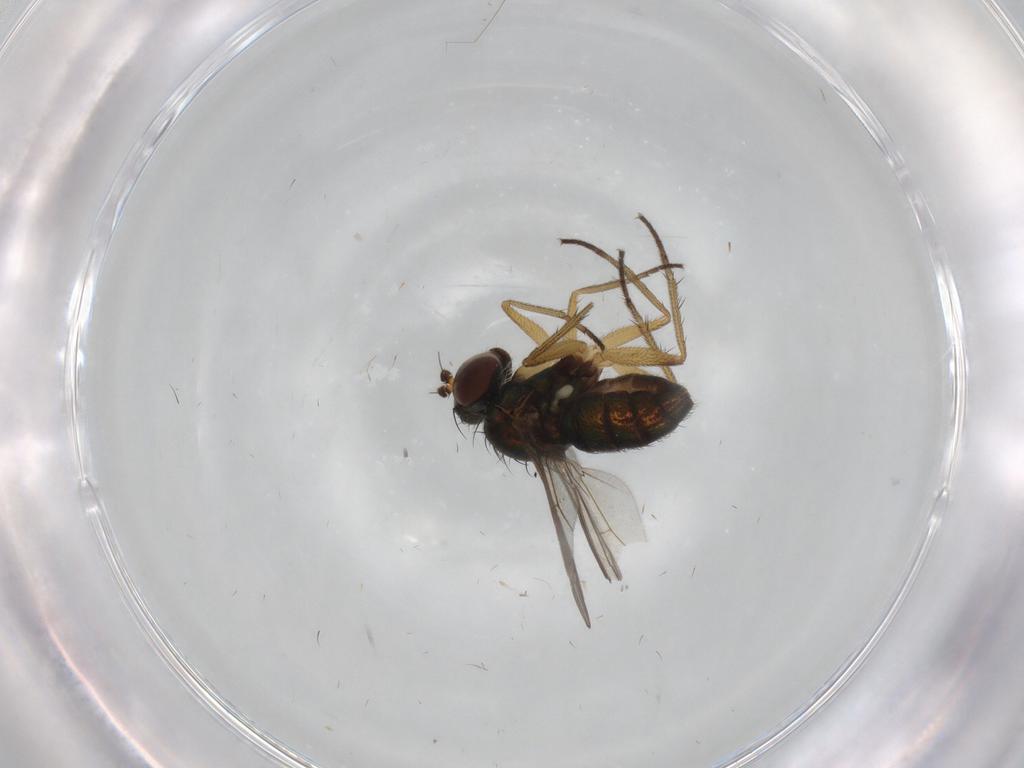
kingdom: Animalia
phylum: Arthropoda
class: Insecta
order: Diptera
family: Dolichopodidae
